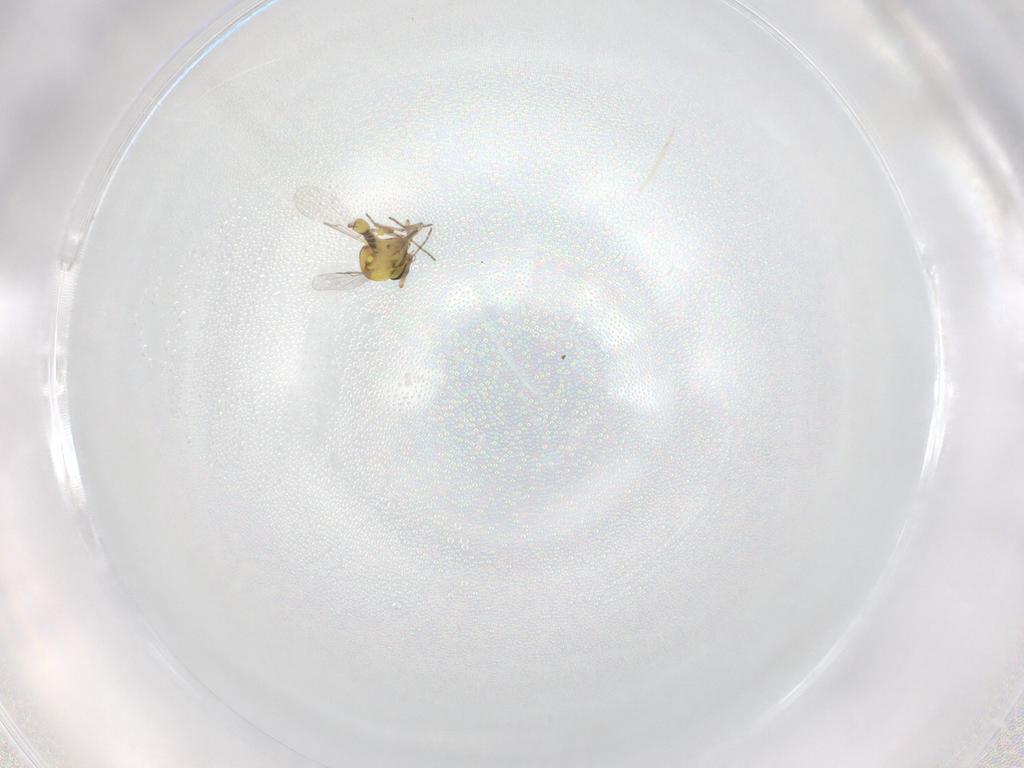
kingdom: Animalia
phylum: Arthropoda
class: Insecta
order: Diptera
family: Ceratopogonidae
